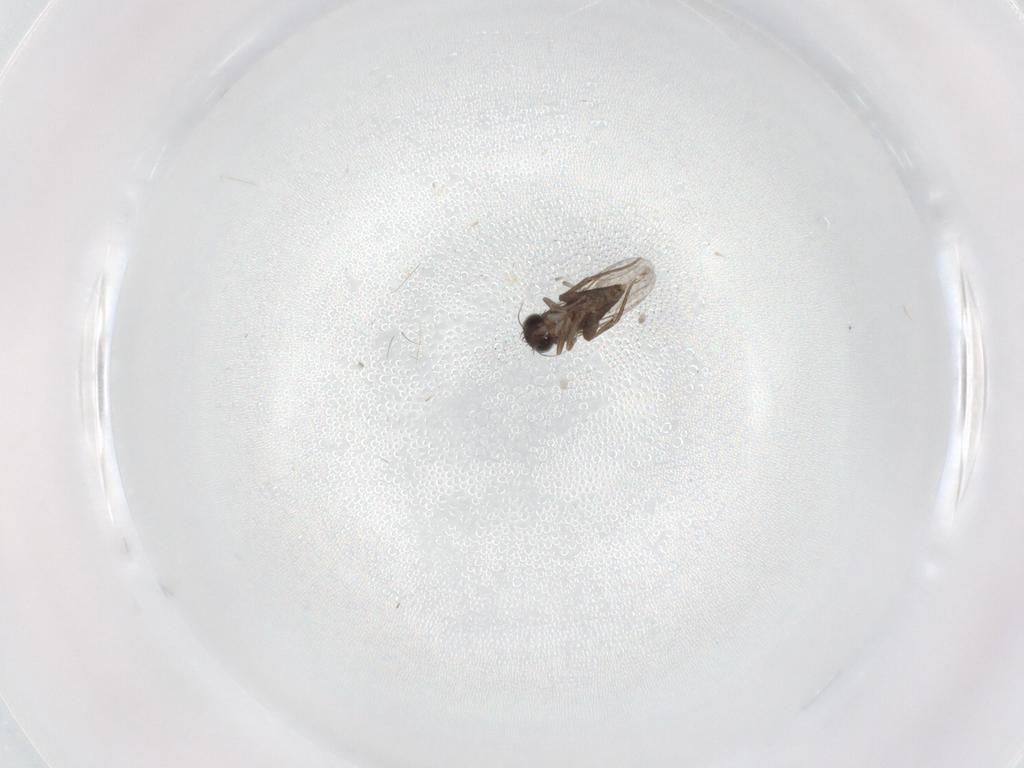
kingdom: Animalia
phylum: Arthropoda
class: Insecta
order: Diptera
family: Phoridae
